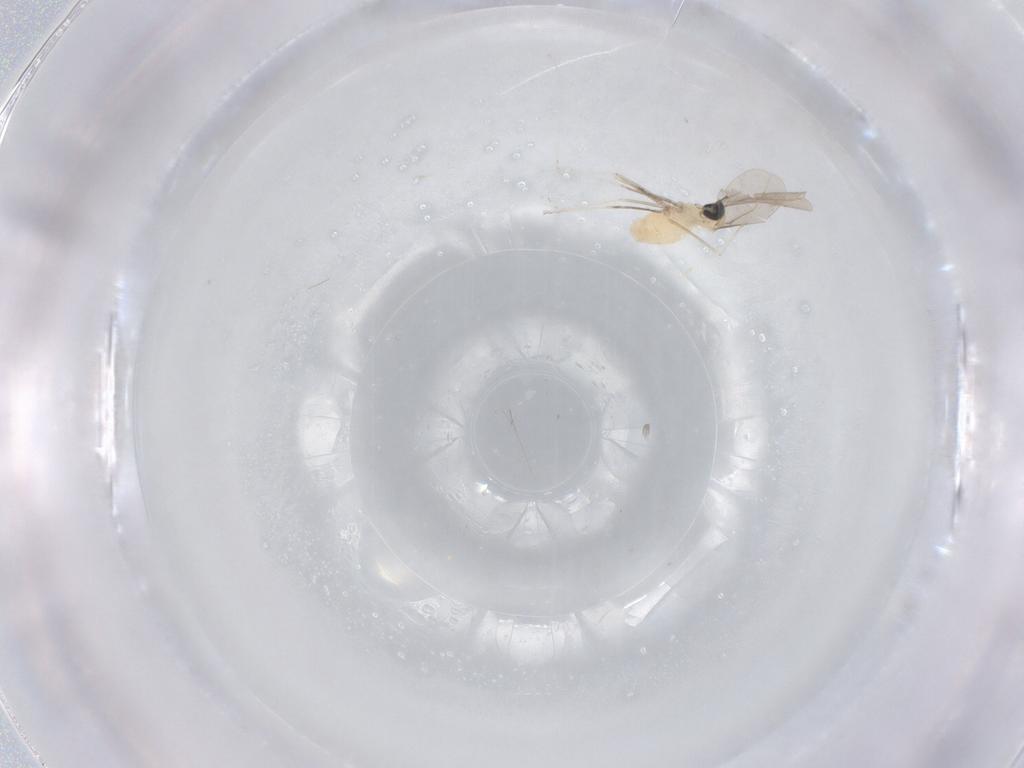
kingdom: Animalia
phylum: Arthropoda
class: Insecta
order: Diptera
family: Cecidomyiidae
